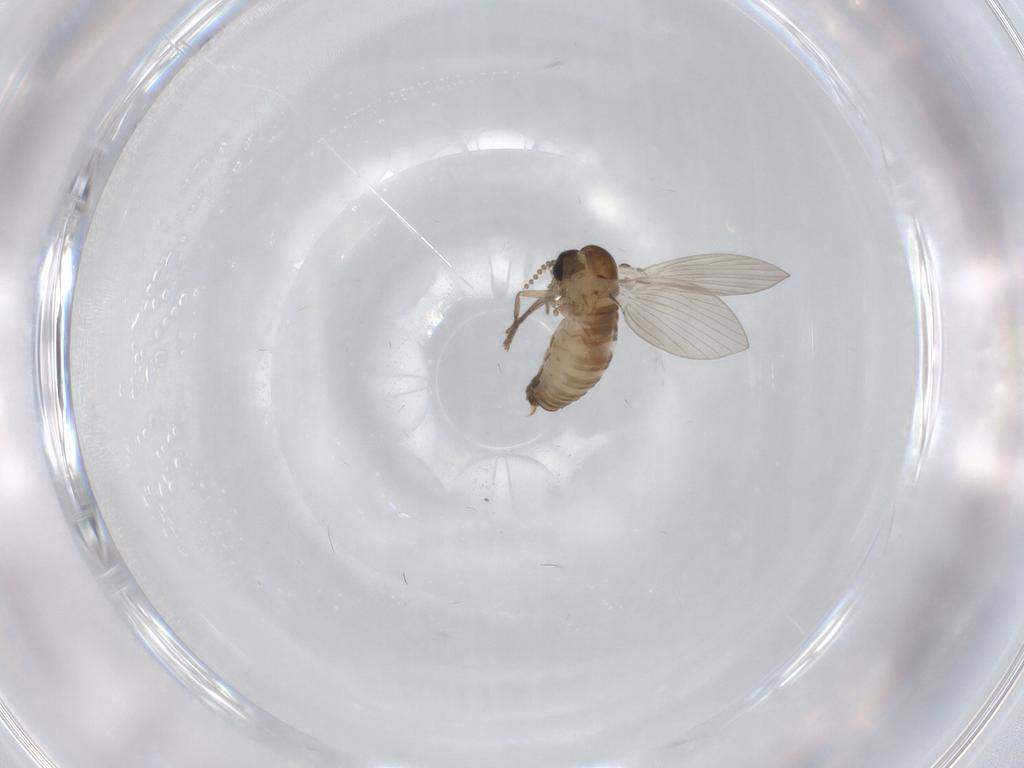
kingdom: Animalia
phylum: Arthropoda
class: Insecta
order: Diptera
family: Psychodidae
